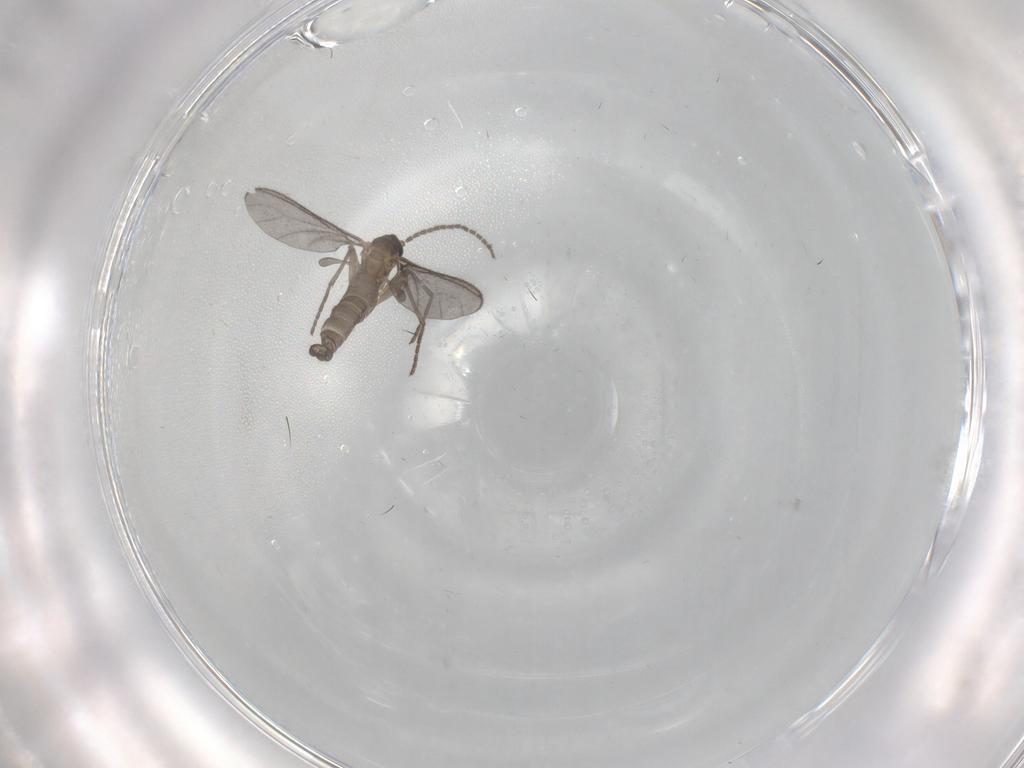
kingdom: Animalia
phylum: Arthropoda
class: Insecta
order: Diptera
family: Sciaridae
